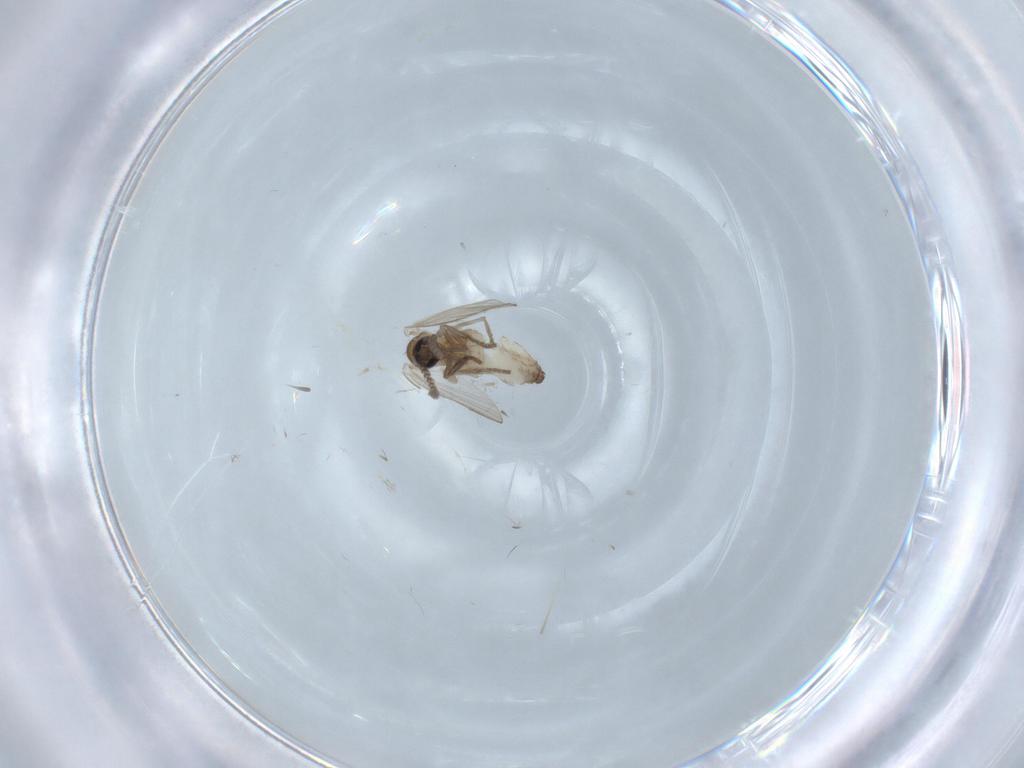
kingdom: Animalia
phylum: Arthropoda
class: Insecta
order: Diptera
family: Psychodidae
